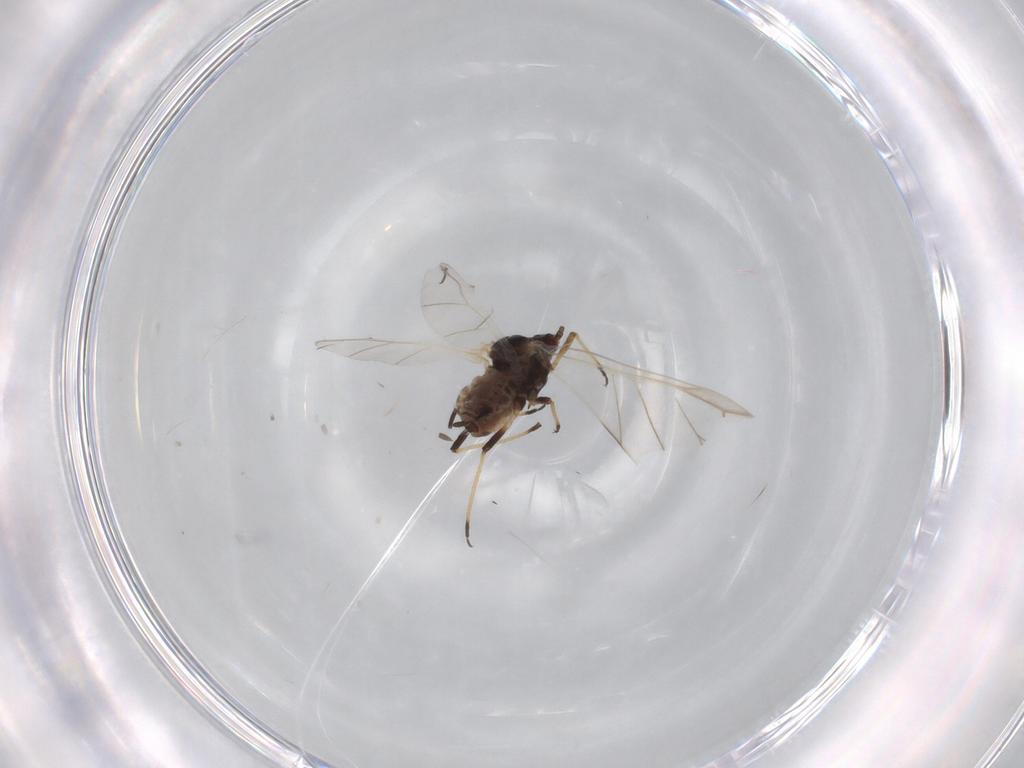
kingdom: Animalia
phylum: Arthropoda
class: Insecta
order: Hemiptera
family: Aphididae
